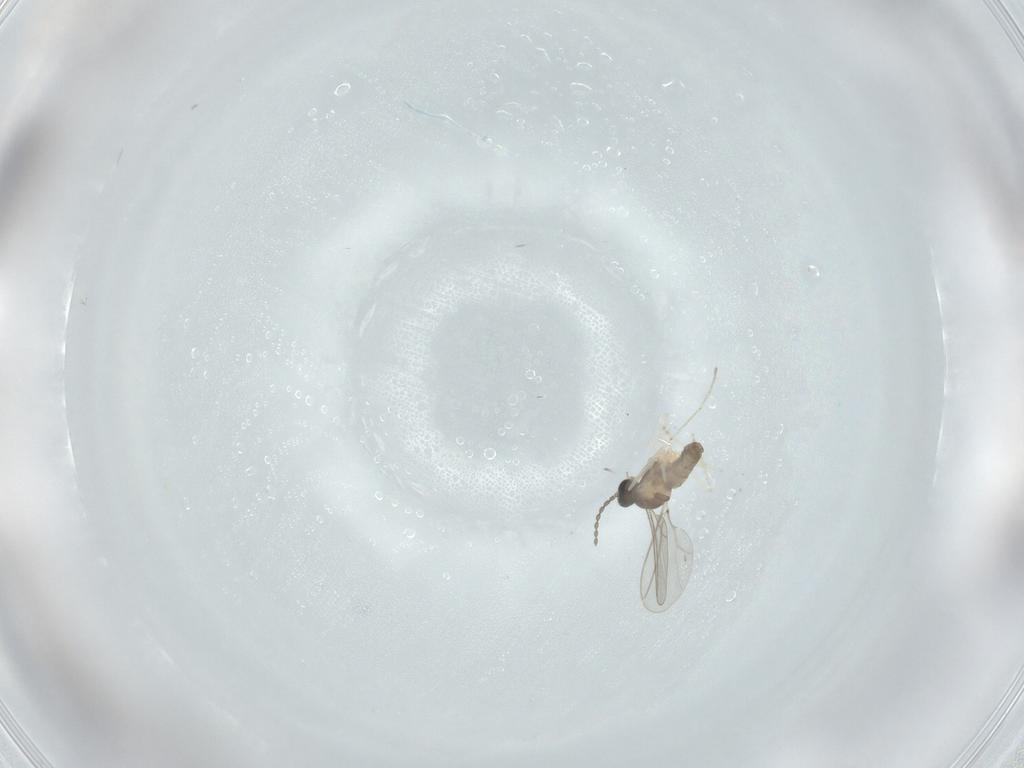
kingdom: Animalia
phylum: Arthropoda
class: Insecta
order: Diptera
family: Cecidomyiidae
